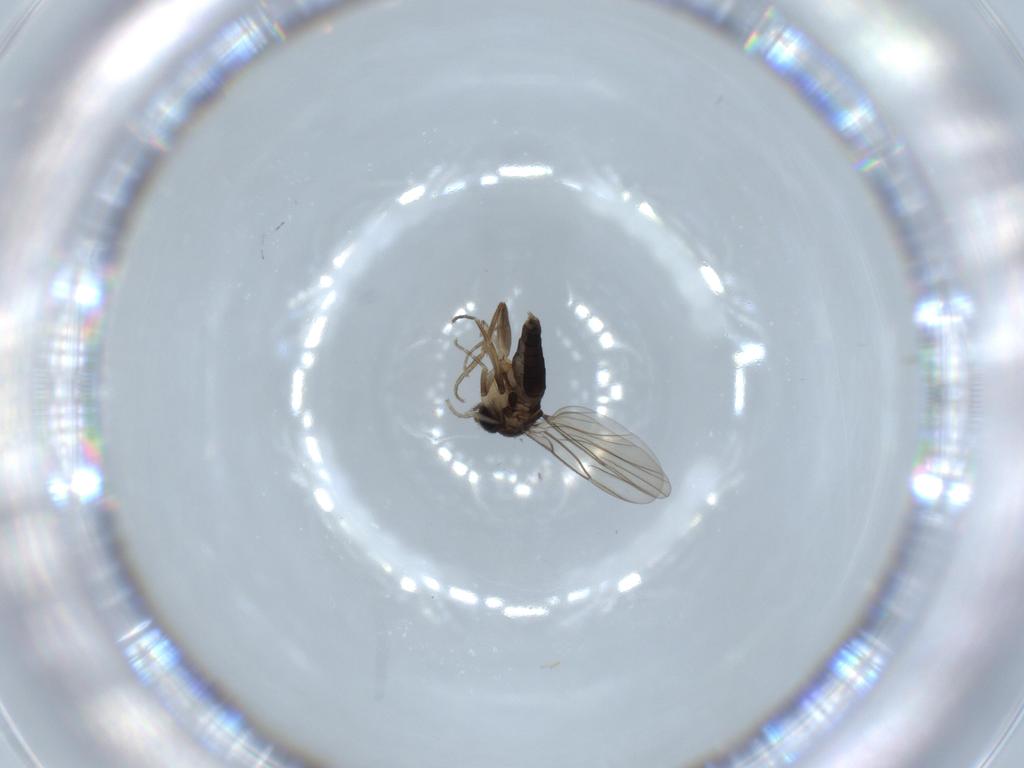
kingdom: Animalia
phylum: Arthropoda
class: Insecta
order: Diptera
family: Phoridae
